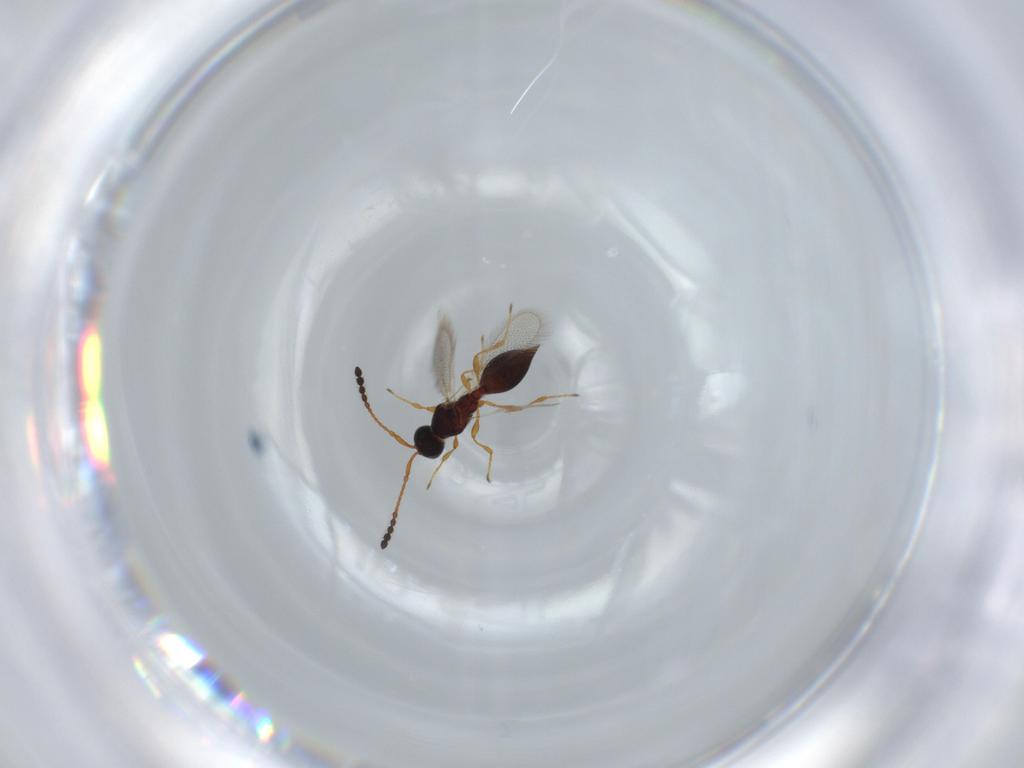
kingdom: Animalia
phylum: Arthropoda
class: Insecta
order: Hymenoptera
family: Diapriidae
